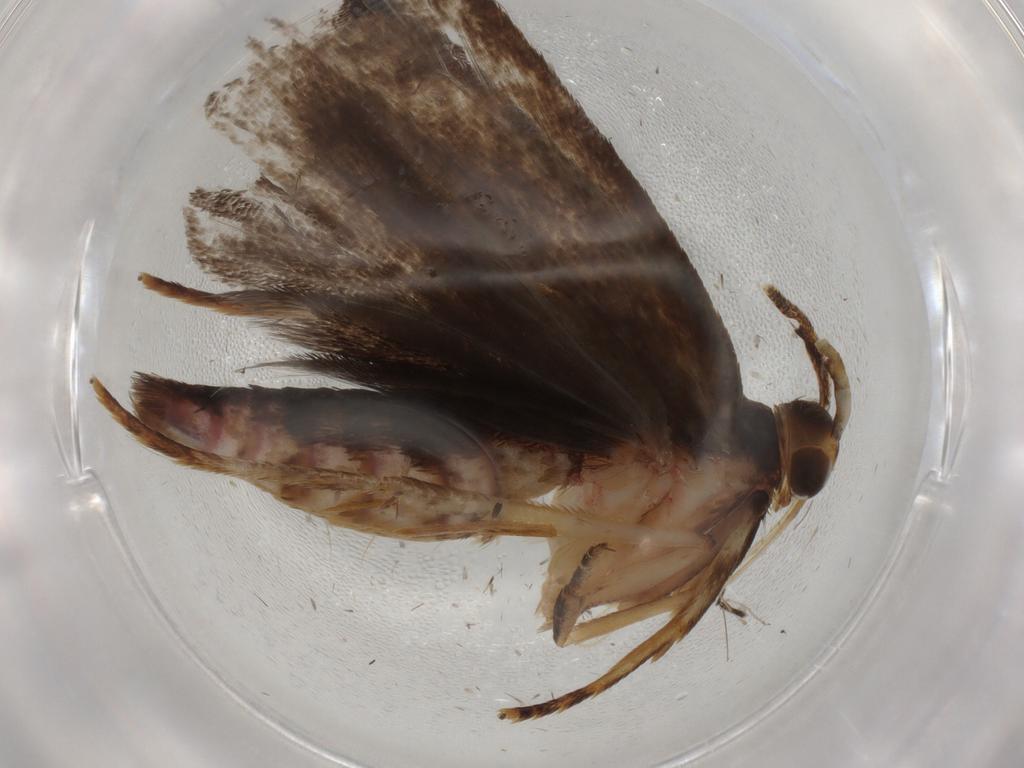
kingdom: Animalia
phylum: Arthropoda
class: Insecta
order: Lepidoptera
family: Autostichidae
